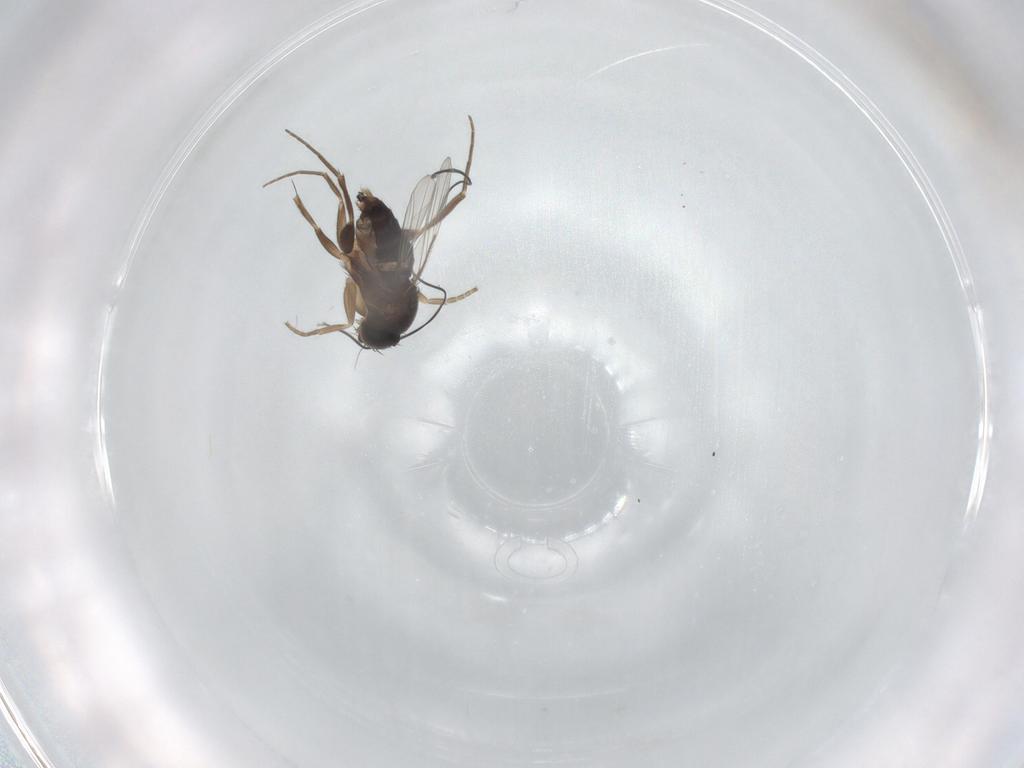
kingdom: Animalia
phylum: Arthropoda
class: Insecta
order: Diptera
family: Phoridae
